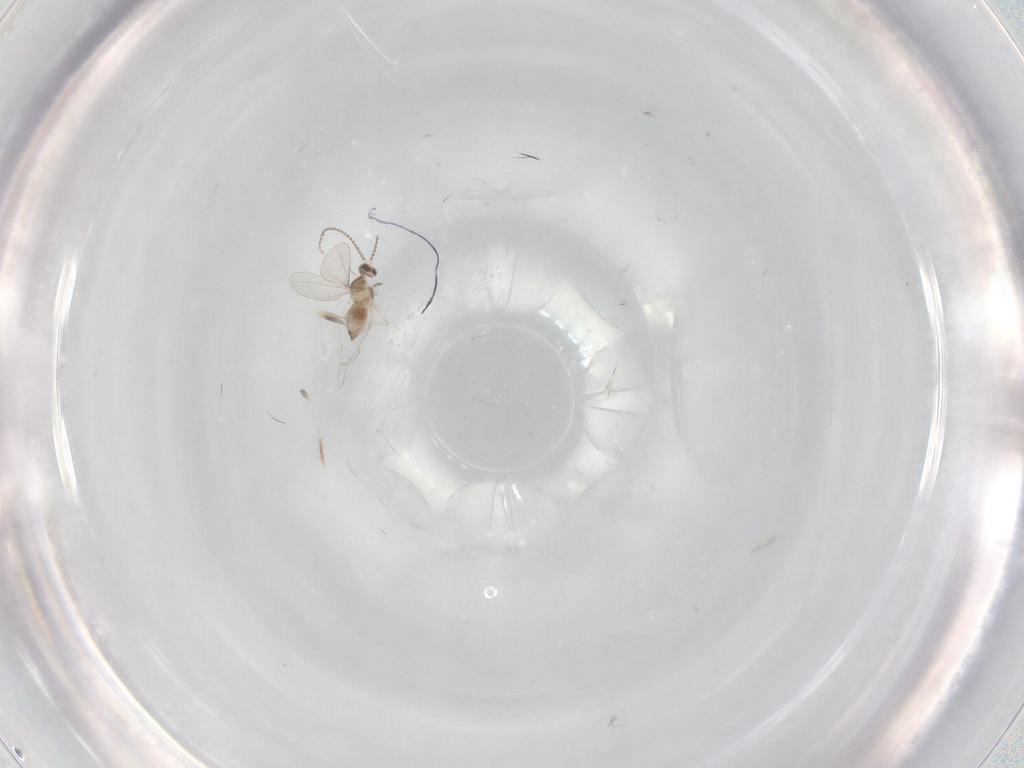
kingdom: Animalia
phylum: Arthropoda
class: Insecta
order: Diptera
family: Cecidomyiidae
